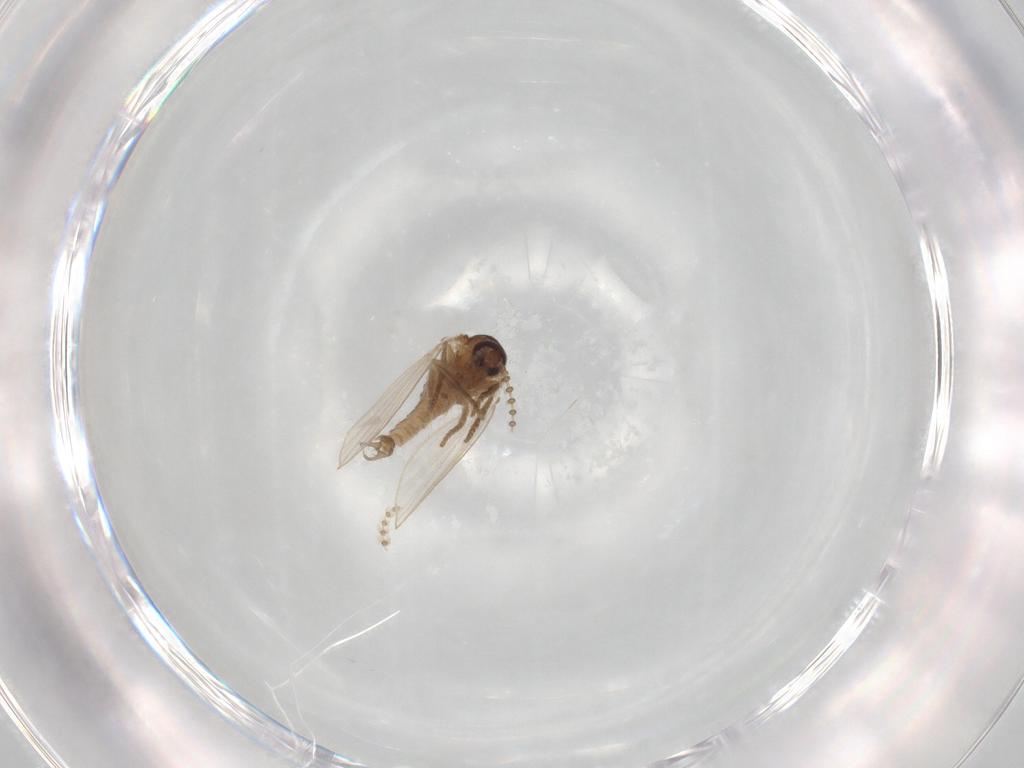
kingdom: Animalia
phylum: Arthropoda
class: Insecta
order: Diptera
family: Psychodidae
